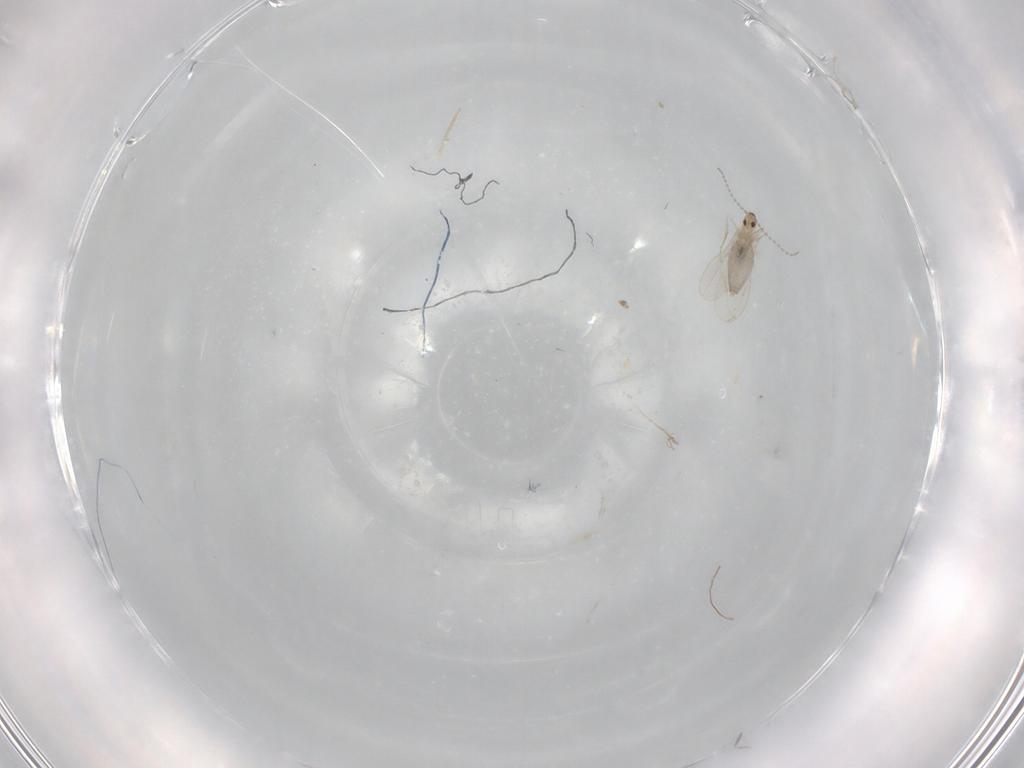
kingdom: Animalia
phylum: Arthropoda
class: Insecta
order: Diptera
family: Cecidomyiidae
